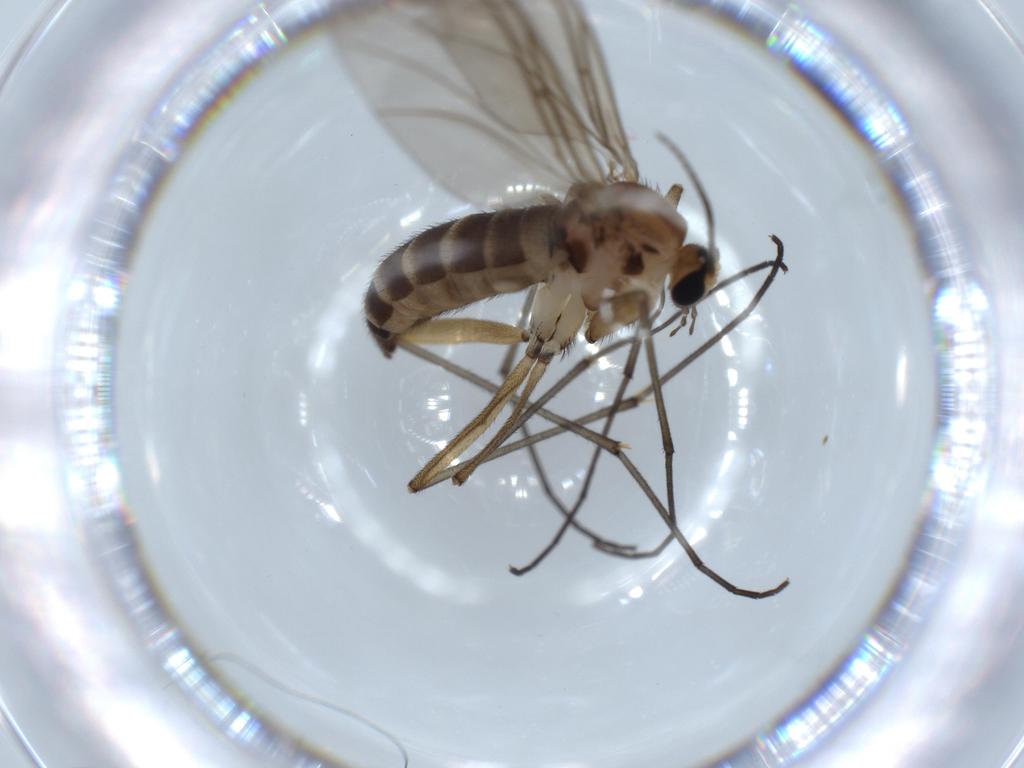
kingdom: Animalia
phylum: Arthropoda
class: Insecta
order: Diptera
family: Sciaridae
